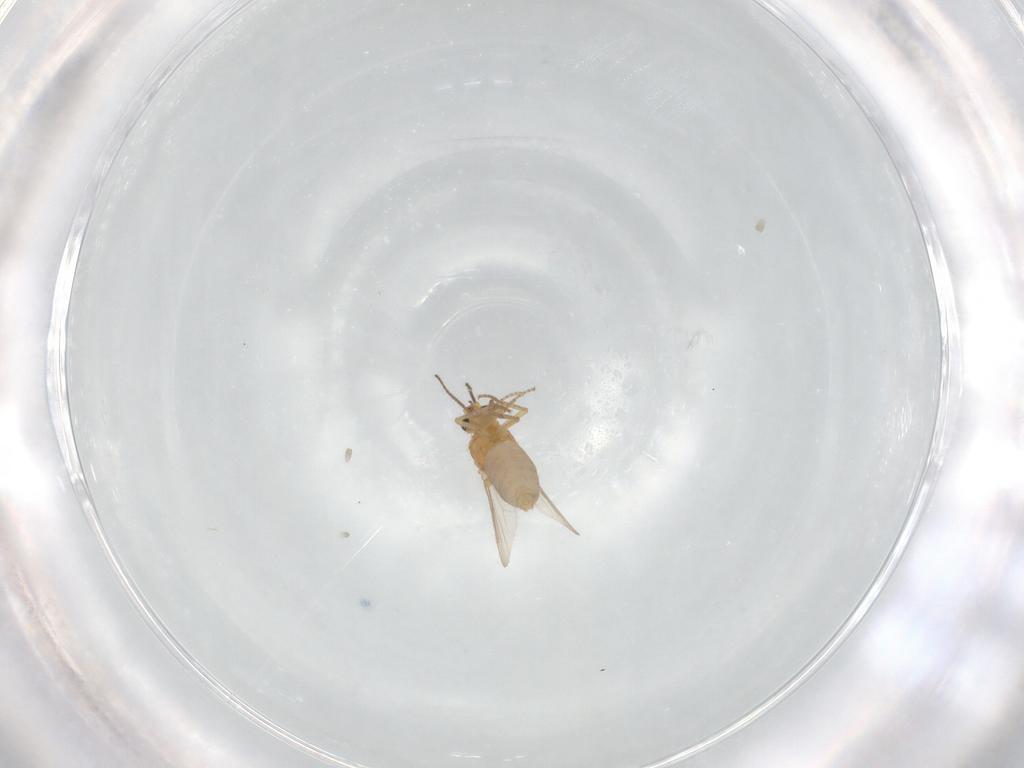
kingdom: Animalia
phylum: Arthropoda
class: Insecta
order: Diptera
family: Ceratopogonidae
